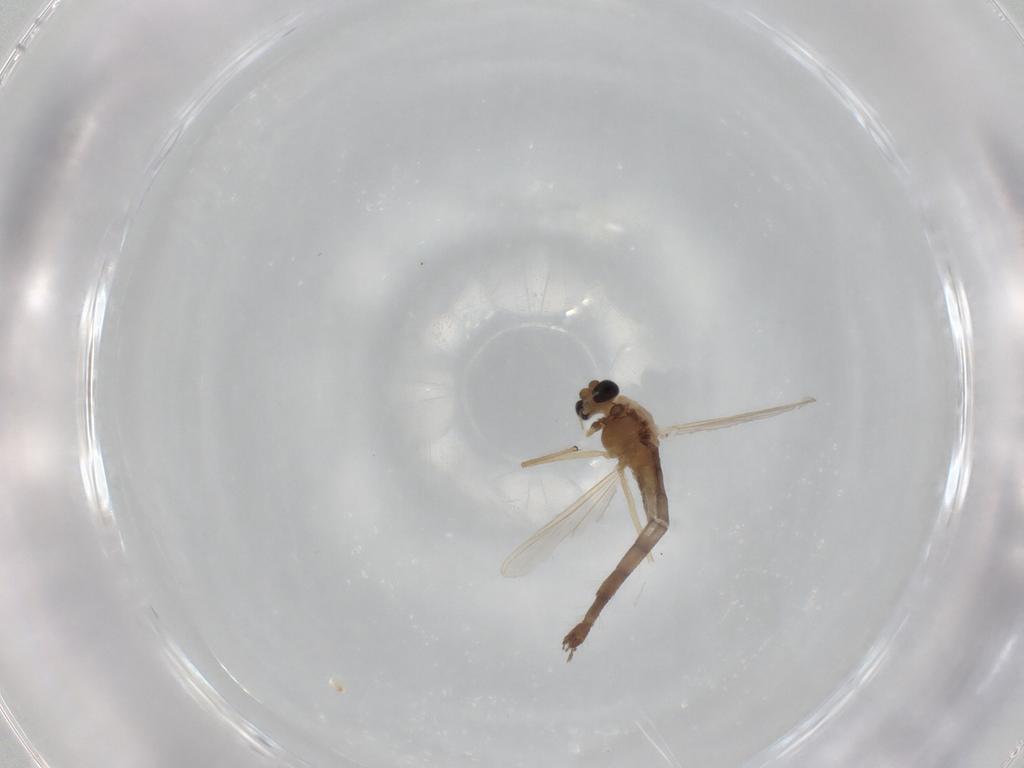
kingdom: Animalia
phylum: Arthropoda
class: Insecta
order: Diptera
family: Chironomidae
